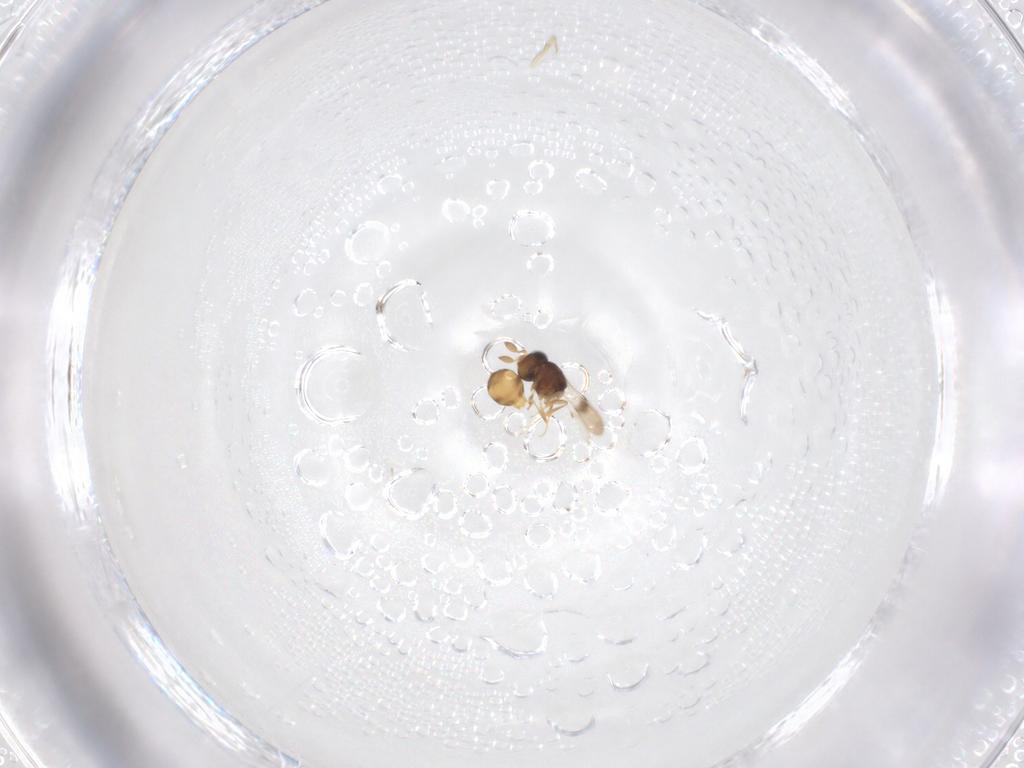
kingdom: Animalia
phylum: Arthropoda
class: Insecta
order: Hymenoptera
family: Scelionidae
